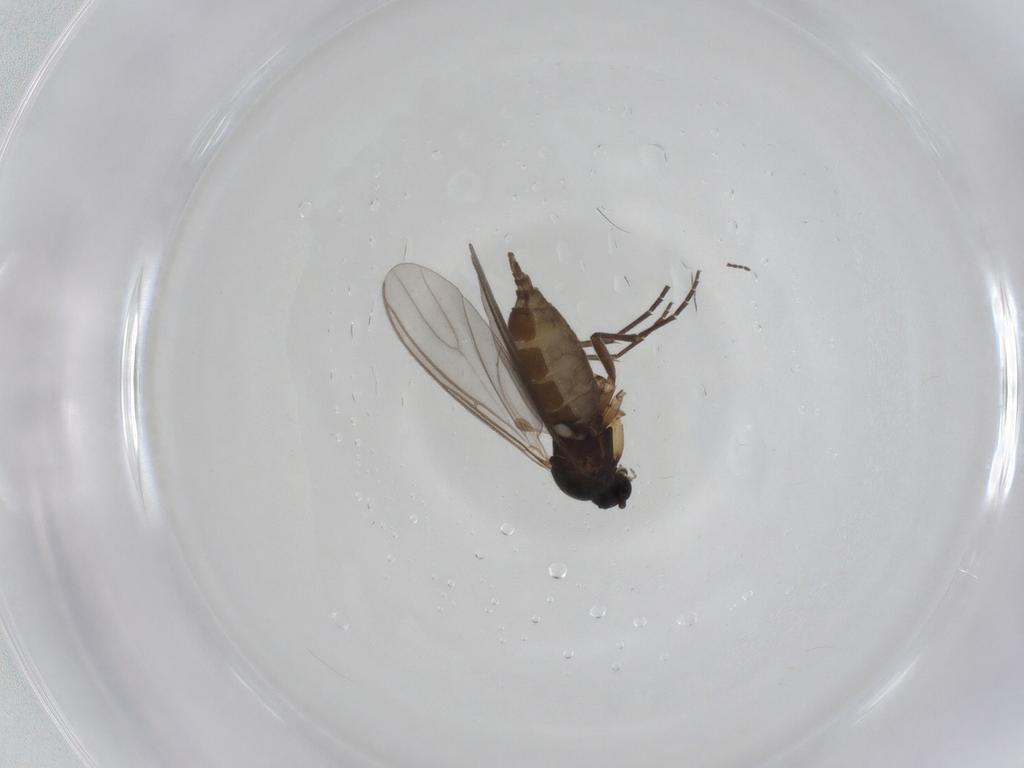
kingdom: Animalia
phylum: Arthropoda
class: Insecta
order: Diptera
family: Sciaridae
